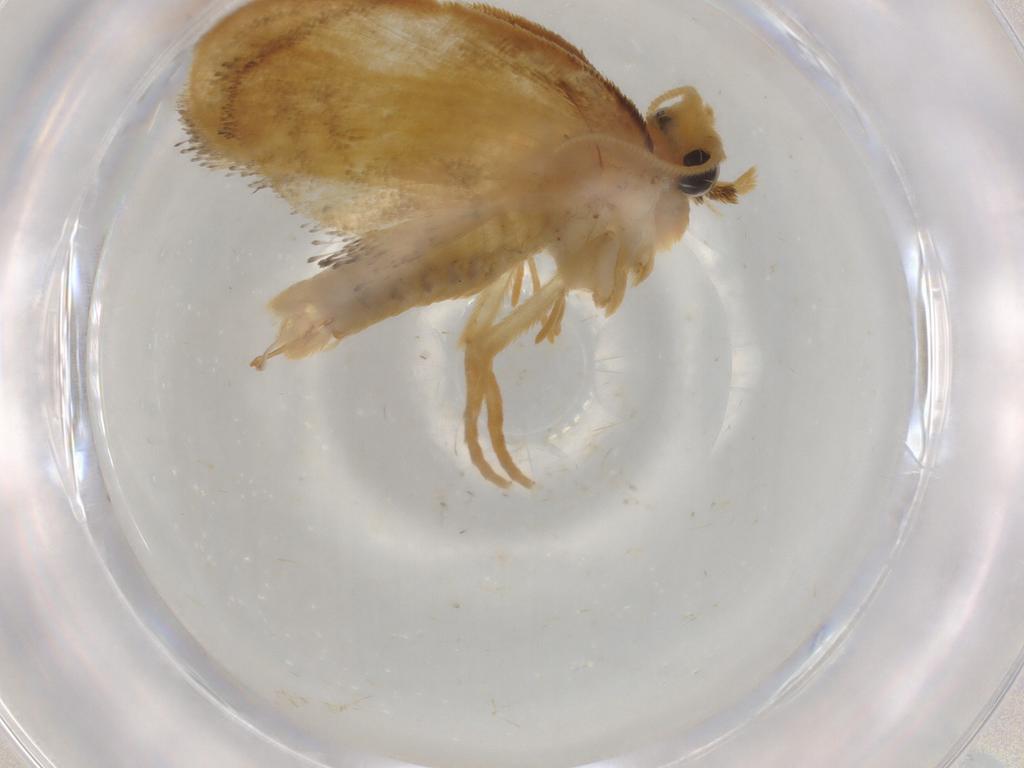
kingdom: Animalia
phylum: Arthropoda
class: Insecta
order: Lepidoptera
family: Psychidae
